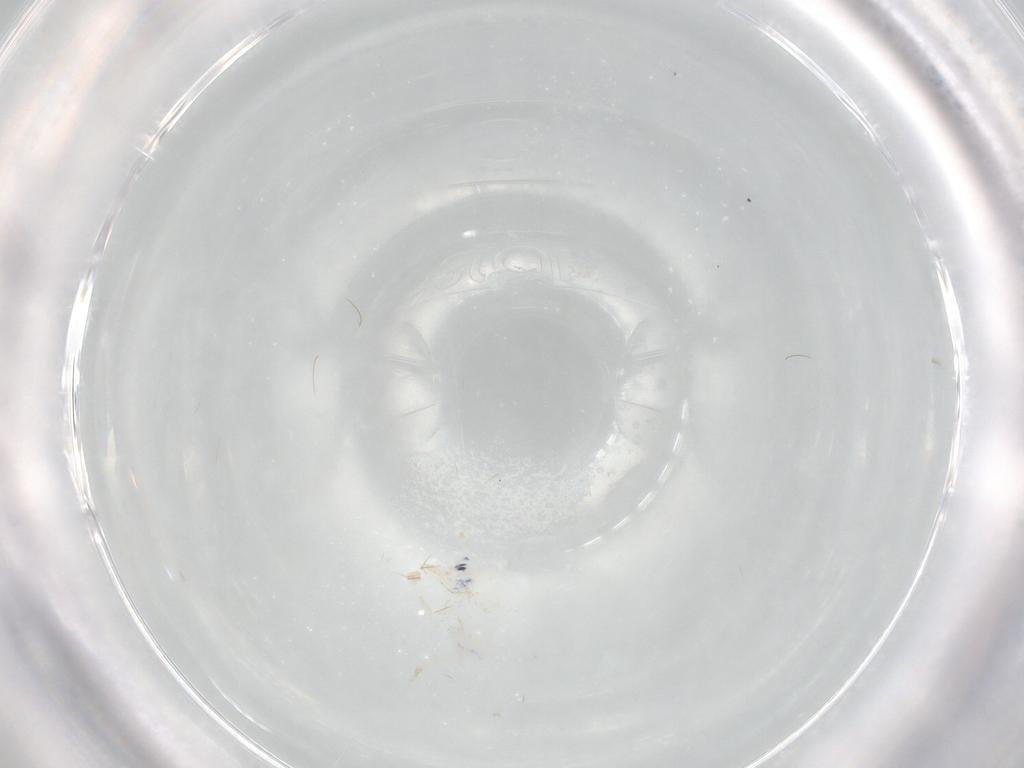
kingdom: Animalia
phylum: Arthropoda
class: Collembola
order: Entomobryomorpha
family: Entomobryidae
